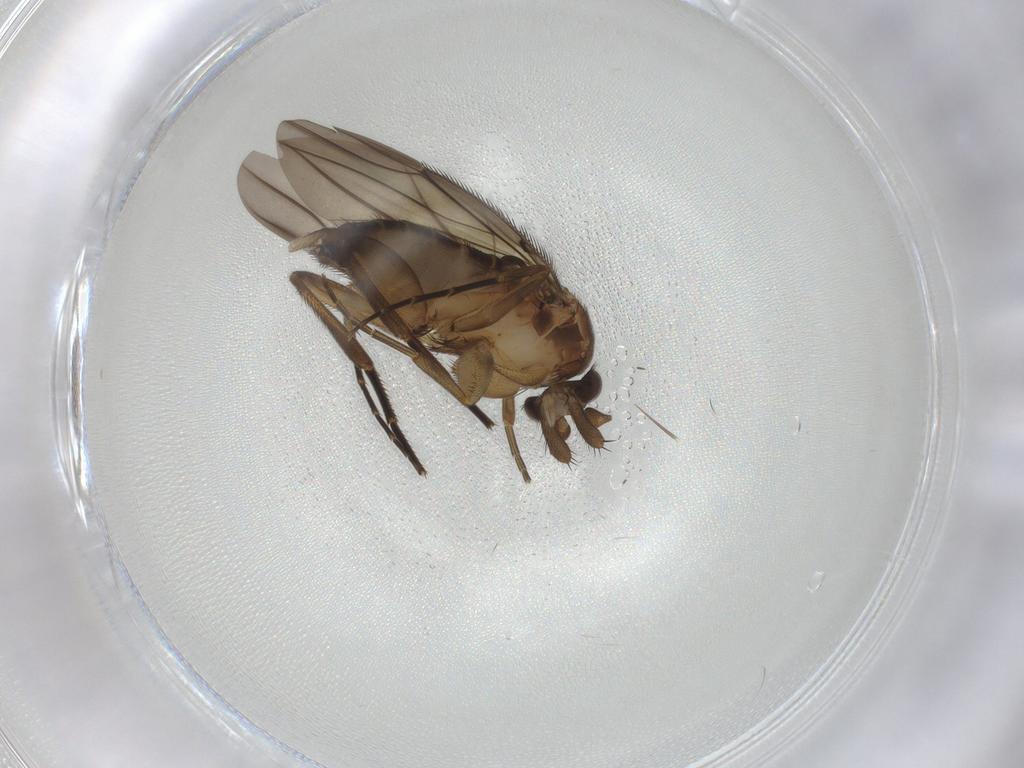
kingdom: Animalia
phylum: Arthropoda
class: Insecta
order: Diptera
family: Phoridae
